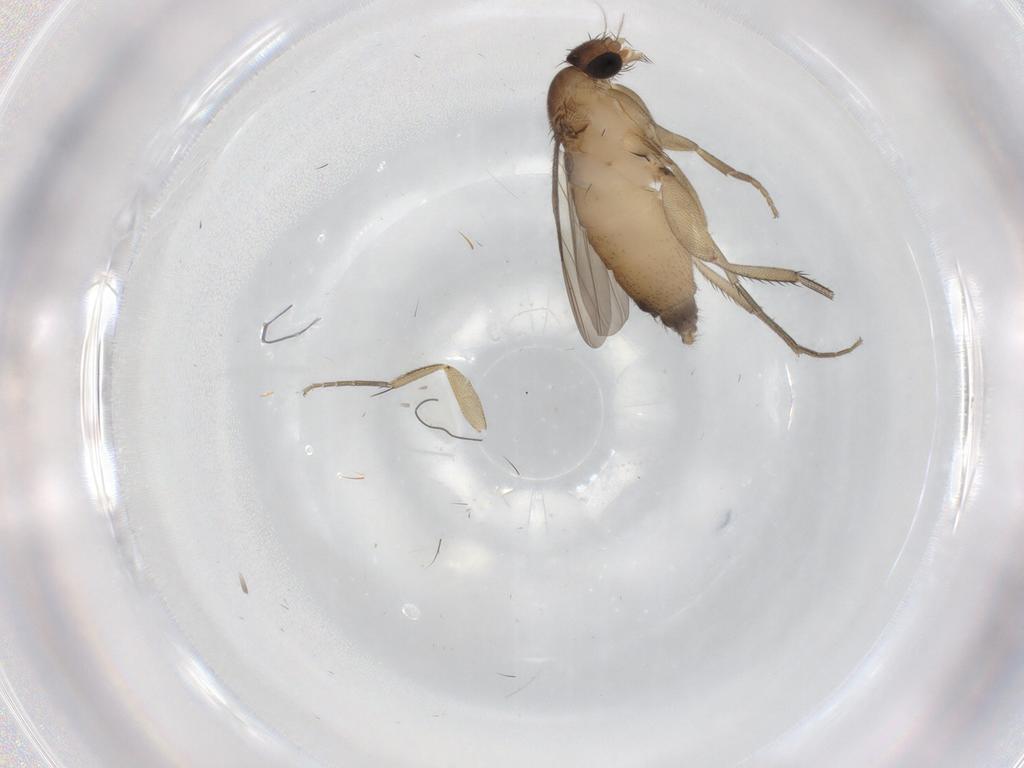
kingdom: Animalia
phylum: Arthropoda
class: Insecta
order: Diptera
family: Phoridae
